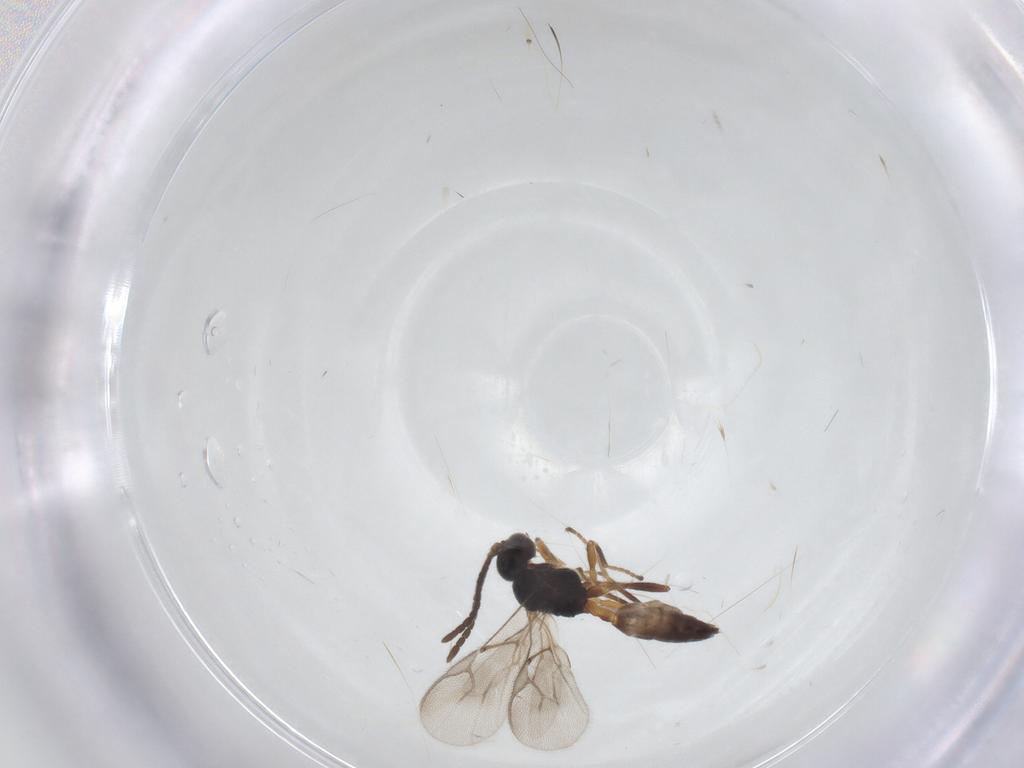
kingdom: Animalia
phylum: Arthropoda
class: Insecta
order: Hymenoptera
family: Braconidae
